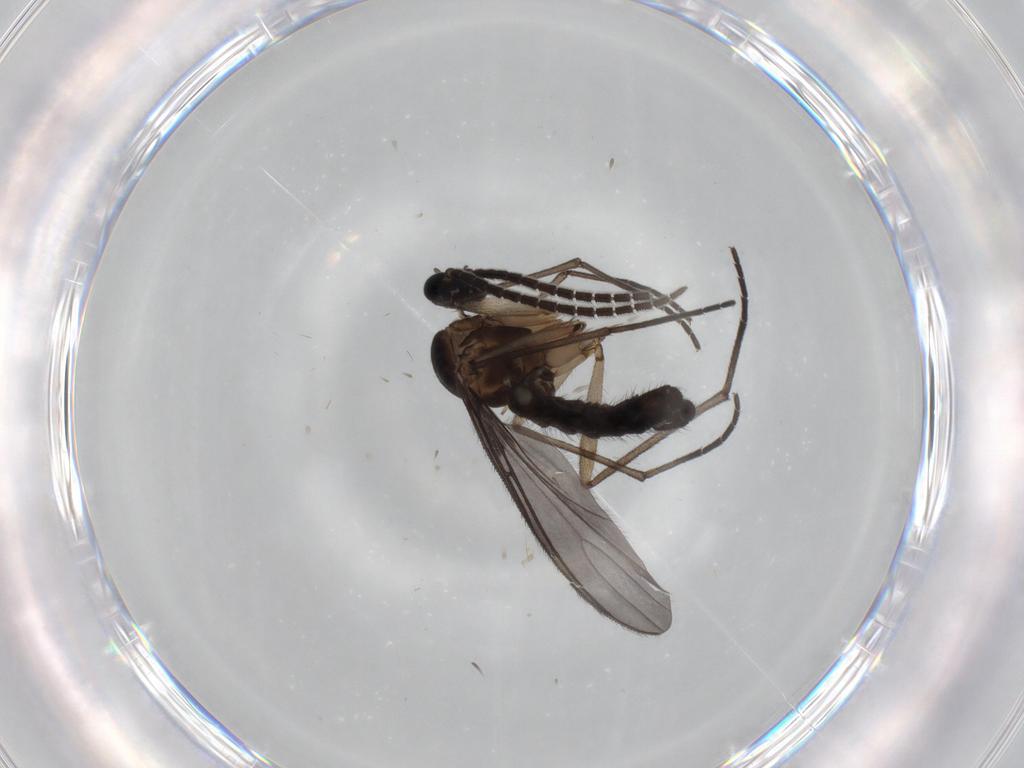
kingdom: Animalia
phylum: Arthropoda
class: Insecta
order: Diptera
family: Sciaridae
